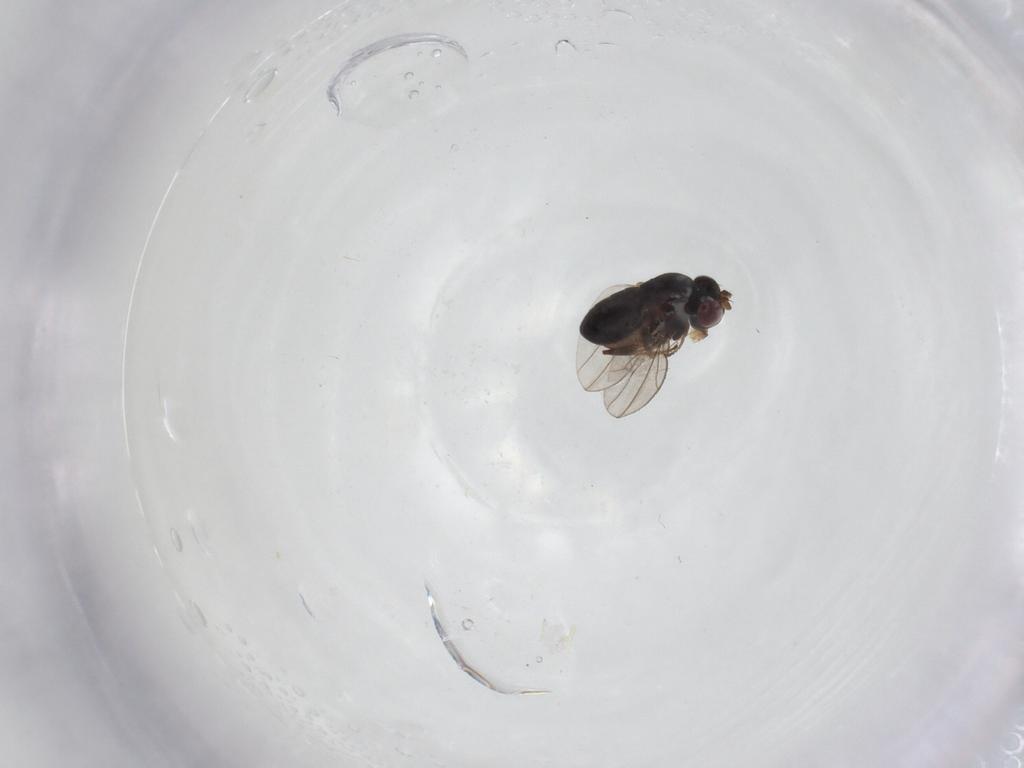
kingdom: Animalia
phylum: Arthropoda
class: Insecta
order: Diptera
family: Ephydridae
